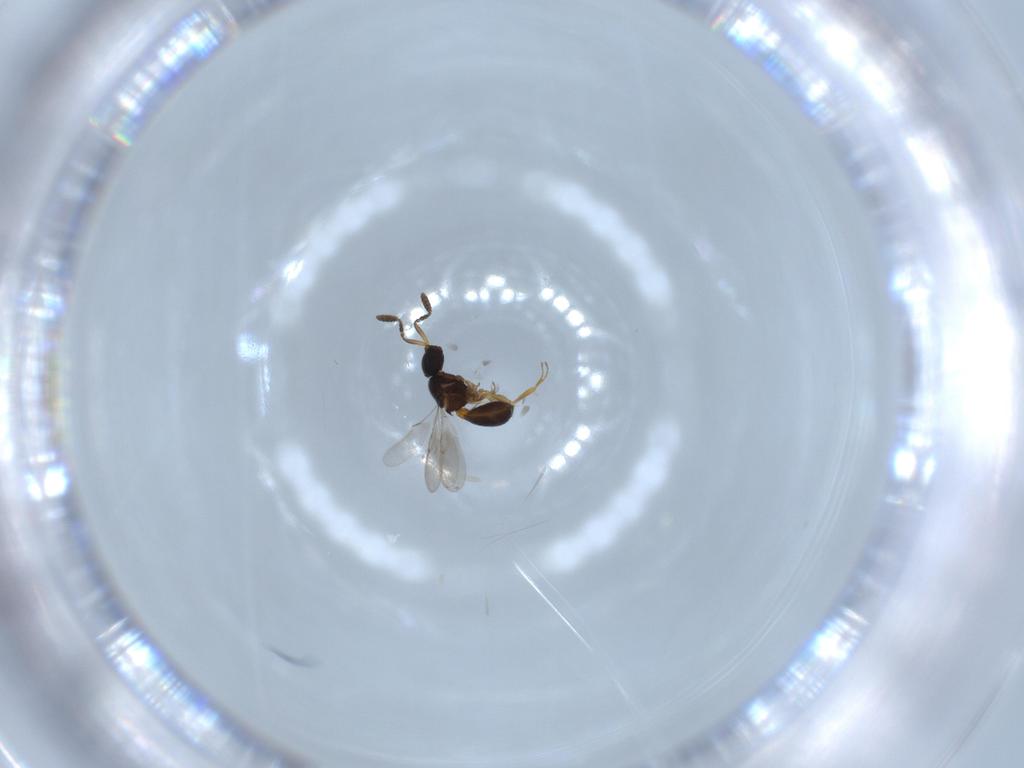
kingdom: Animalia
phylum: Arthropoda
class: Insecta
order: Hymenoptera
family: Scelionidae
